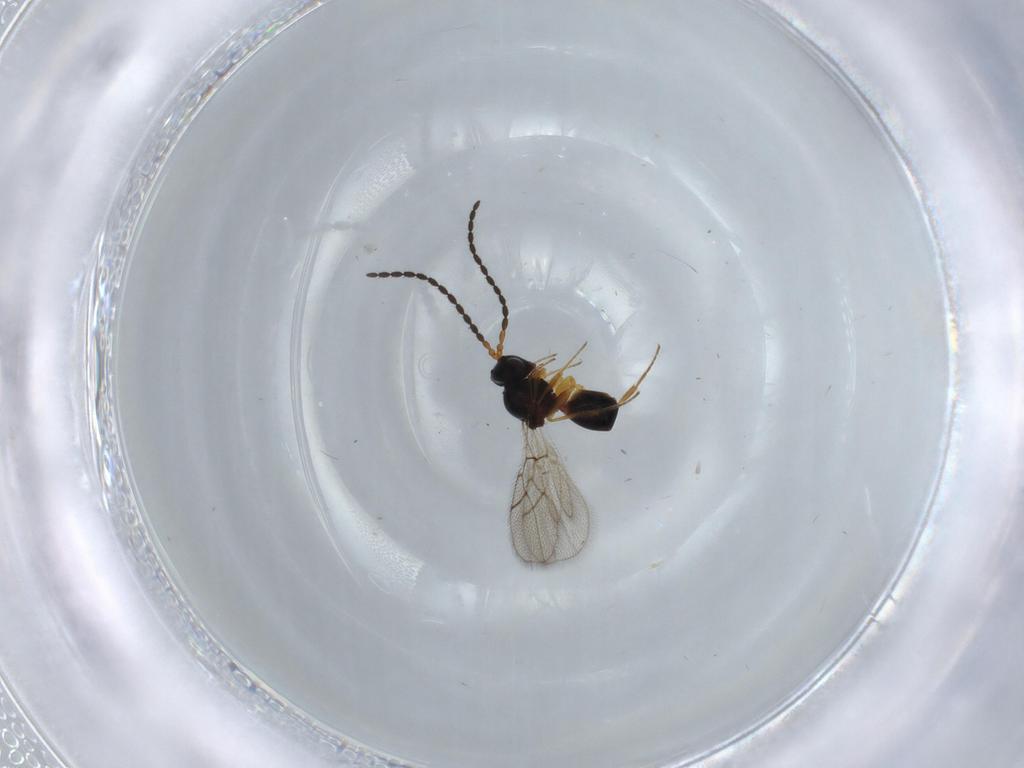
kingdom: Animalia
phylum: Arthropoda
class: Insecta
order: Hymenoptera
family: Figitidae
